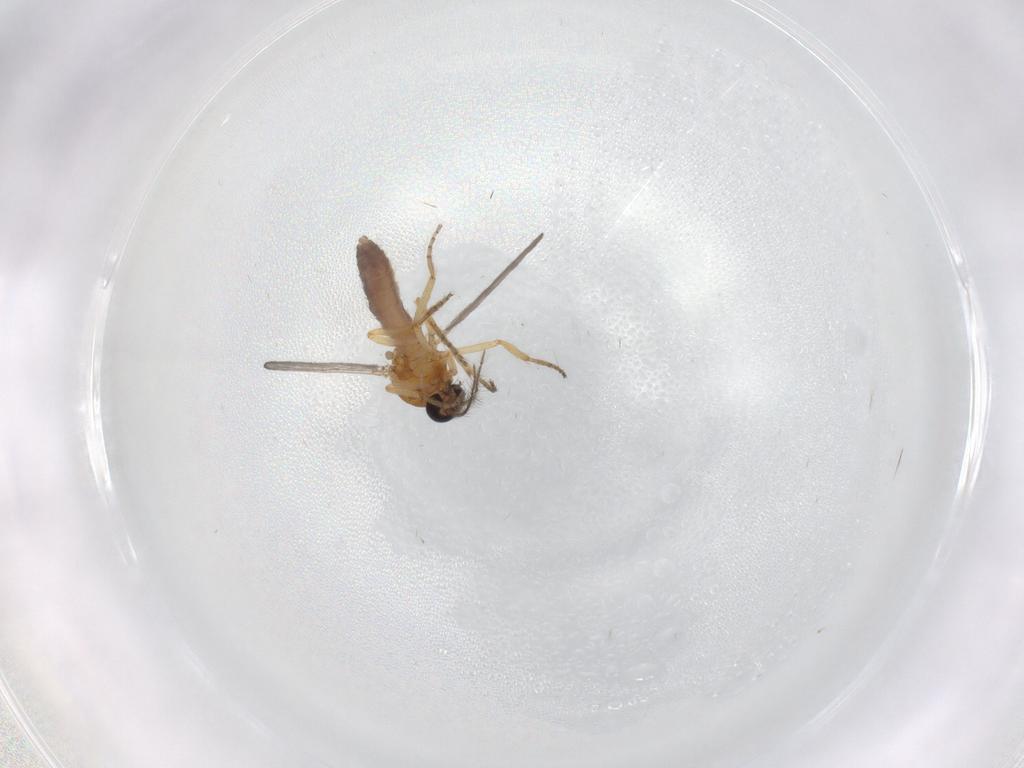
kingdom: Animalia
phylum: Arthropoda
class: Insecta
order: Diptera
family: Ceratopogonidae
